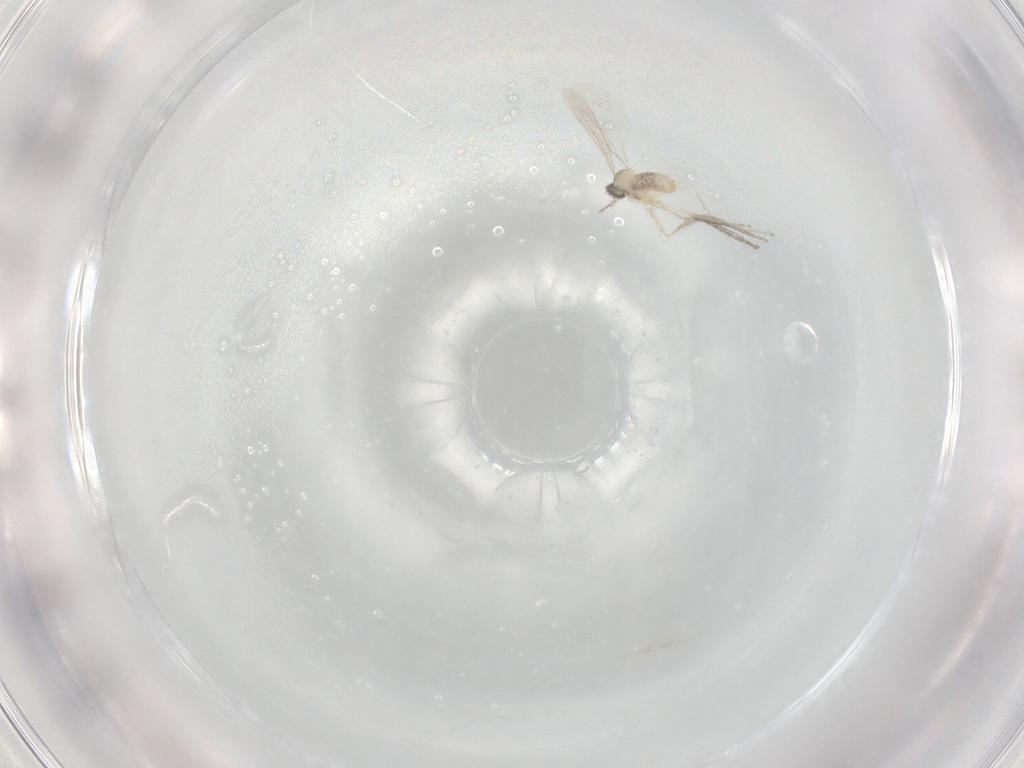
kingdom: Animalia
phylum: Arthropoda
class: Insecta
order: Diptera
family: Cecidomyiidae
